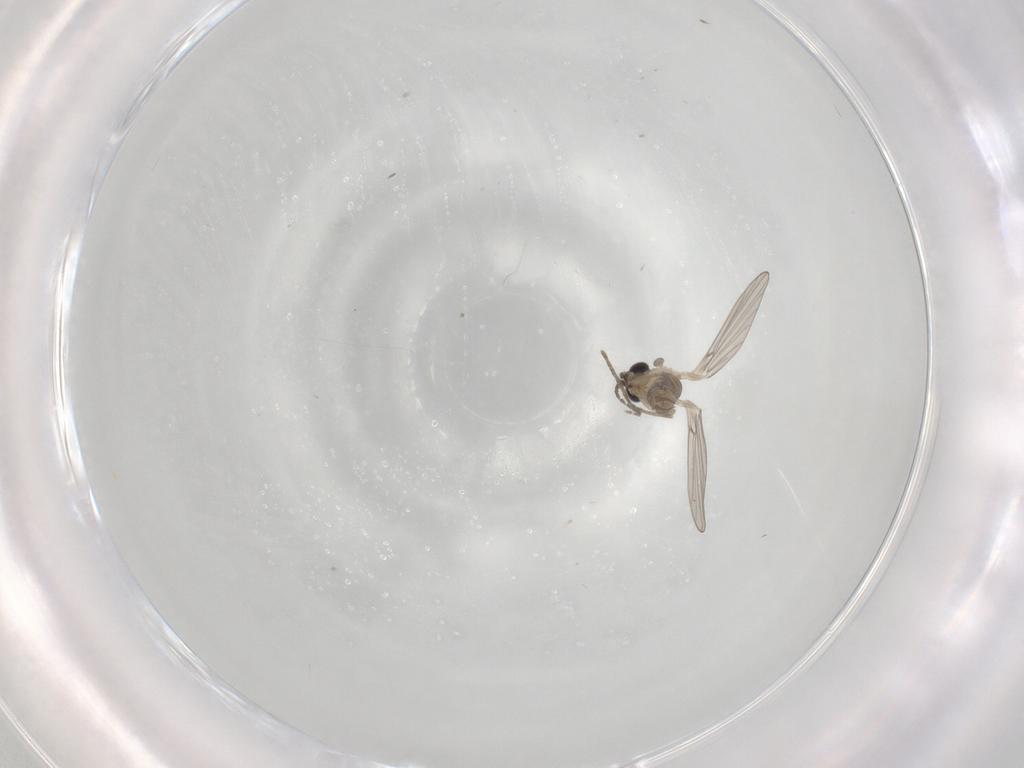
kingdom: Animalia
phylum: Arthropoda
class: Insecta
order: Diptera
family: Psychodidae
